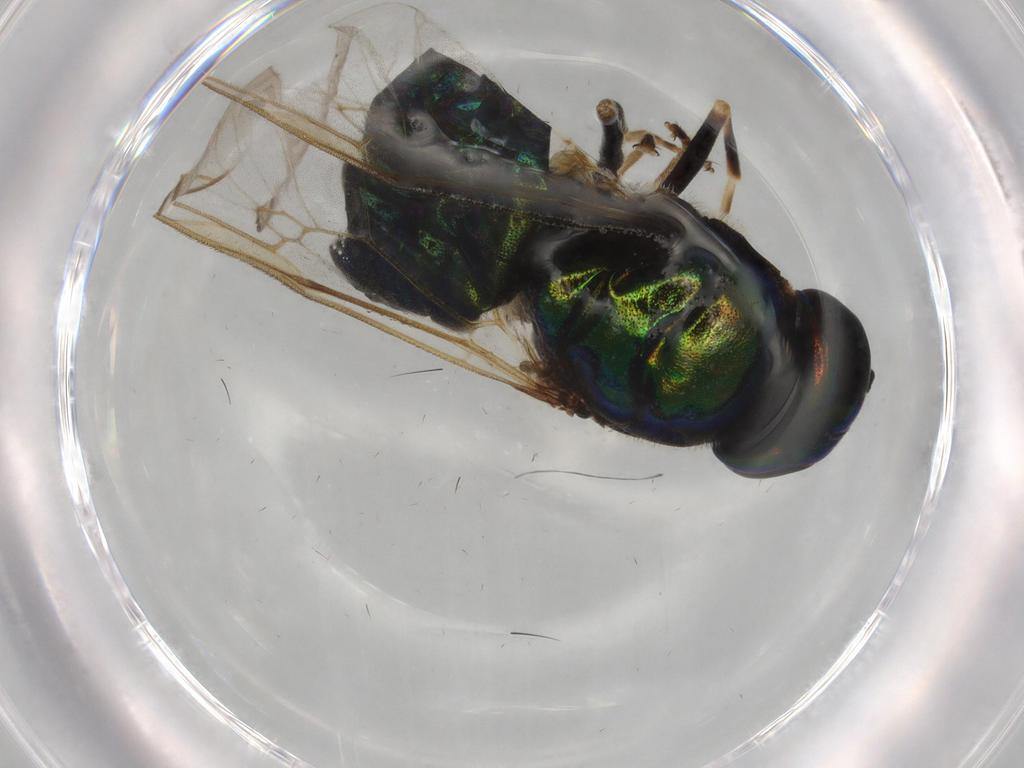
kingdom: Animalia
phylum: Arthropoda
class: Insecta
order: Diptera
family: Stratiomyidae
